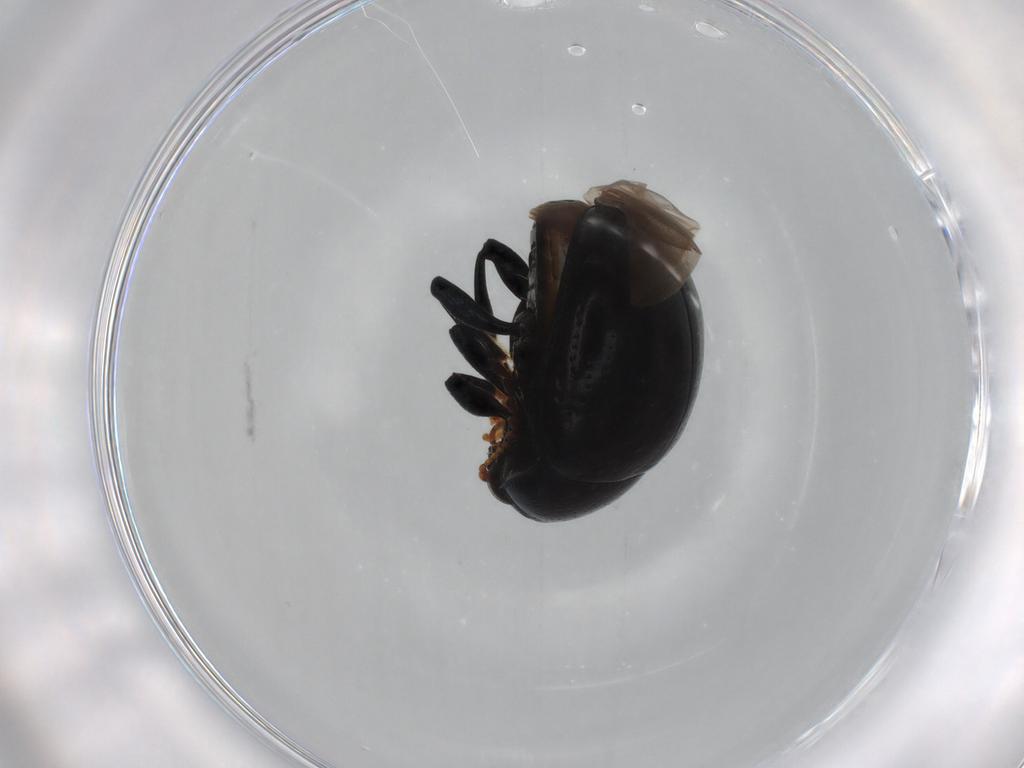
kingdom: Animalia
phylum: Arthropoda
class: Insecta
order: Coleoptera
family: Chrysomelidae
